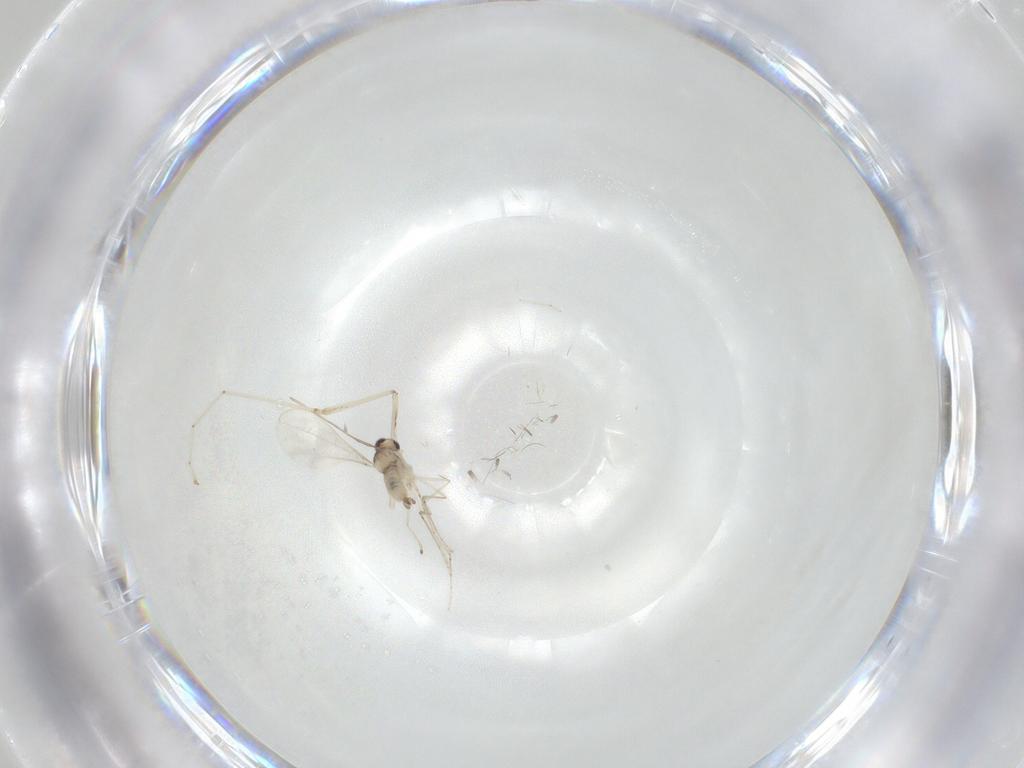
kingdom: Animalia
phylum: Arthropoda
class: Insecta
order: Diptera
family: Cecidomyiidae
